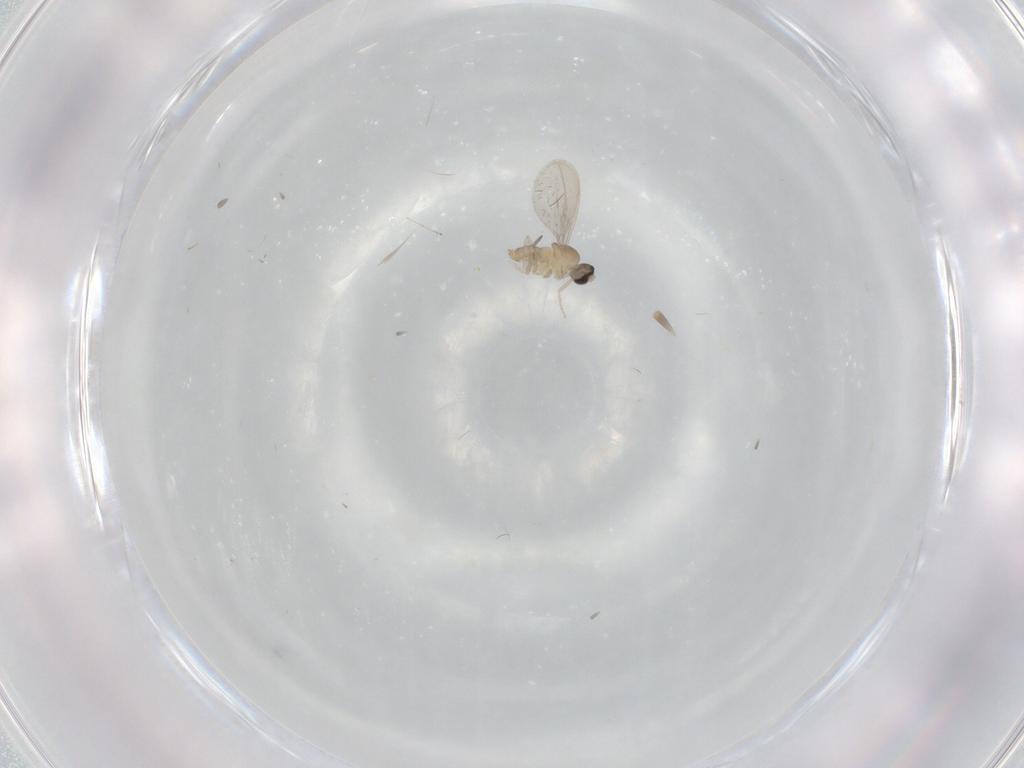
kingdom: Animalia
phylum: Arthropoda
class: Insecta
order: Diptera
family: Cecidomyiidae
